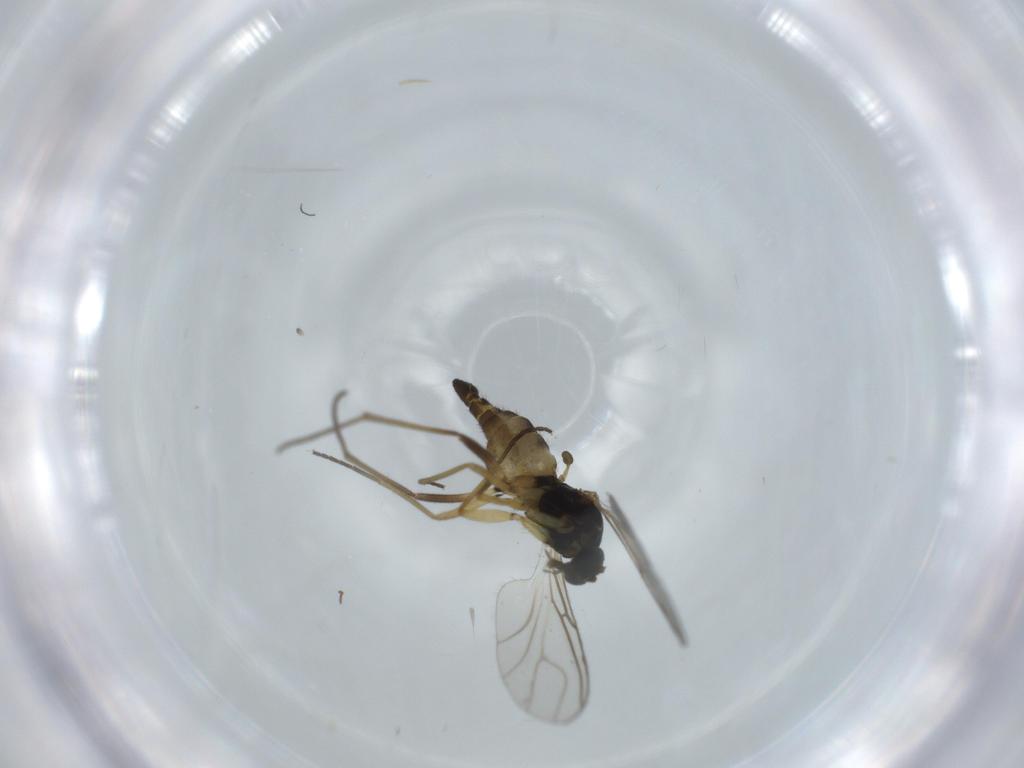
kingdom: Animalia
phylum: Arthropoda
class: Insecta
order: Diptera
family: Sciaridae
